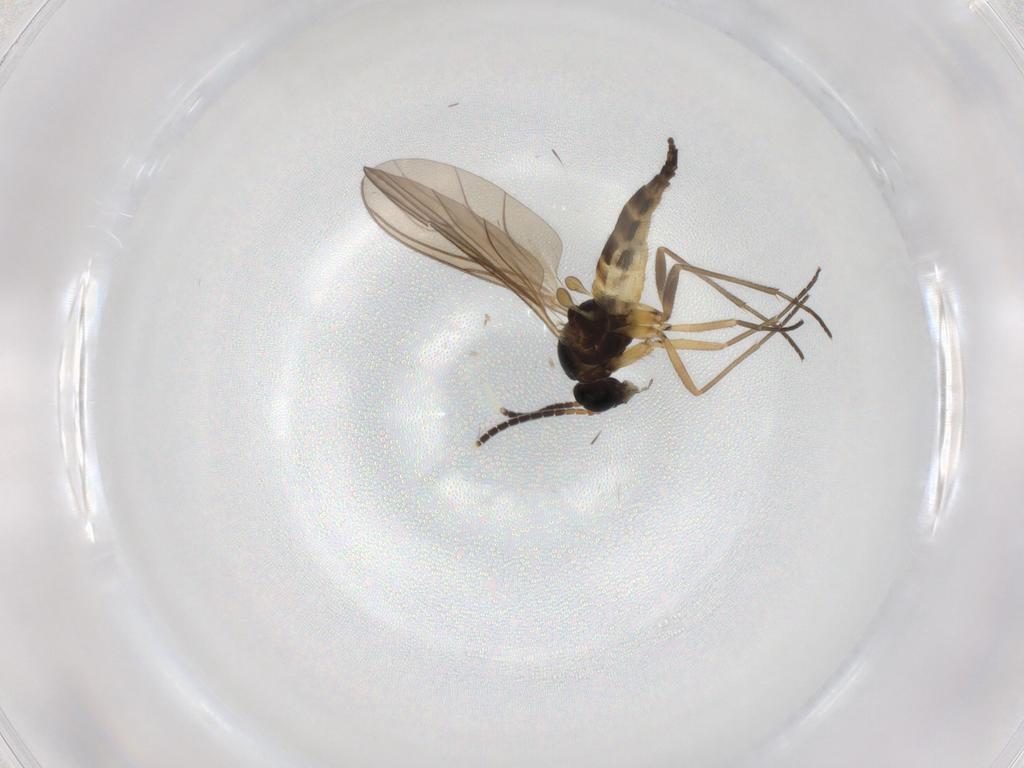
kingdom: Animalia
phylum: Arthropoda
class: Insecta
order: Diptera
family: Sciaridae
